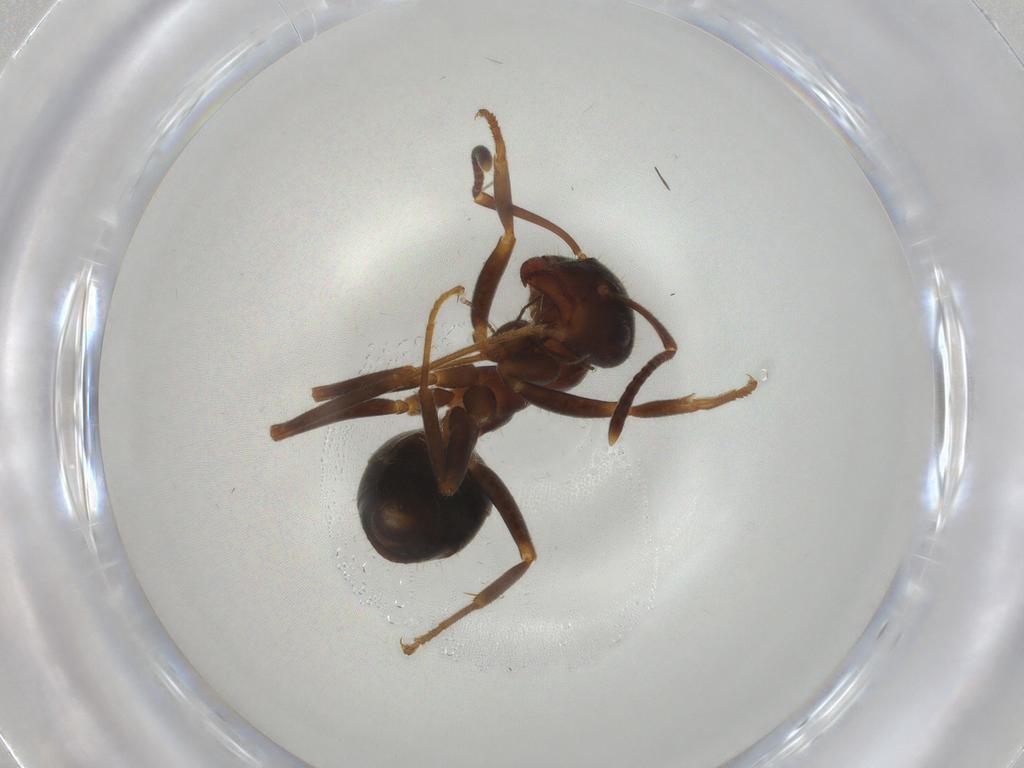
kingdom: Animalia
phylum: Arthropoda
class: Insecta
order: Hymenoptera
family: Formicidae
